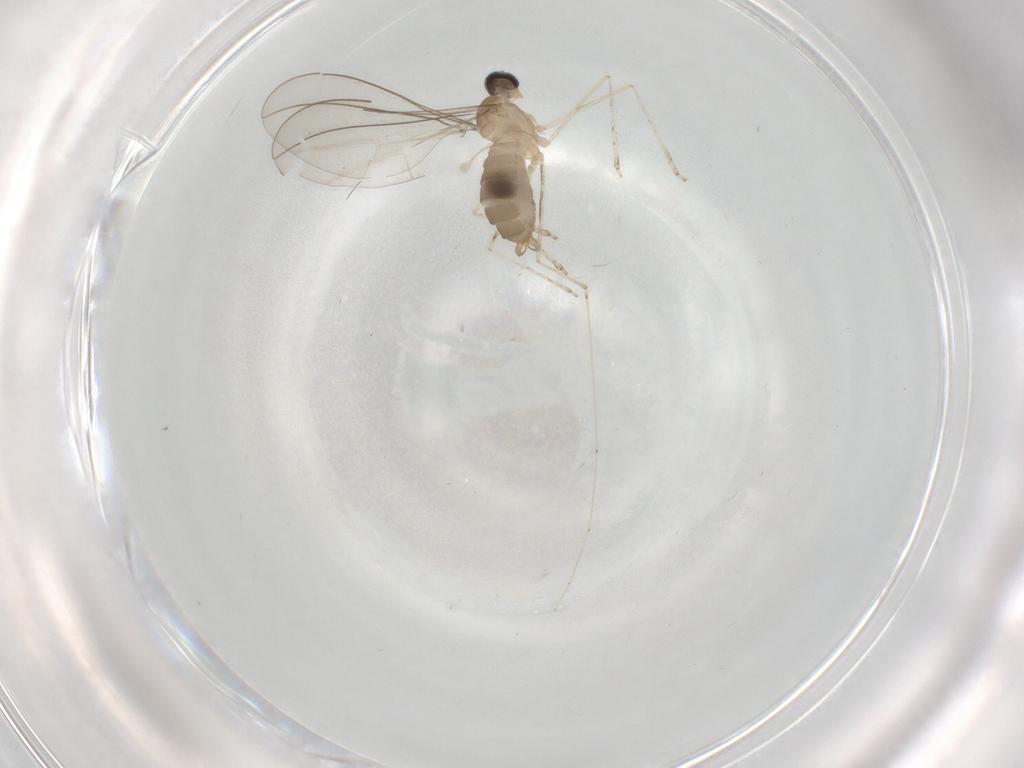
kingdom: Animalia
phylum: Arthropoda
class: Insecta
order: Diptera
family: Cecidomyiidae
